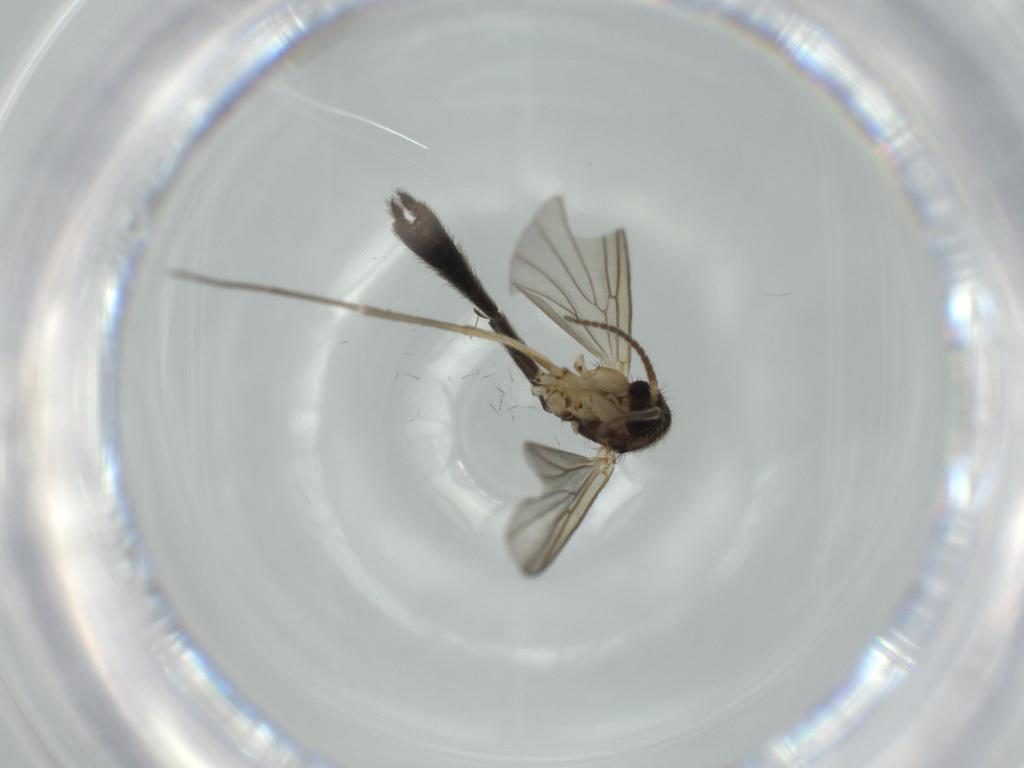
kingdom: Animalia
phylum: Arthropoda
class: Insecta
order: Diptera
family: Mycetophilidae
